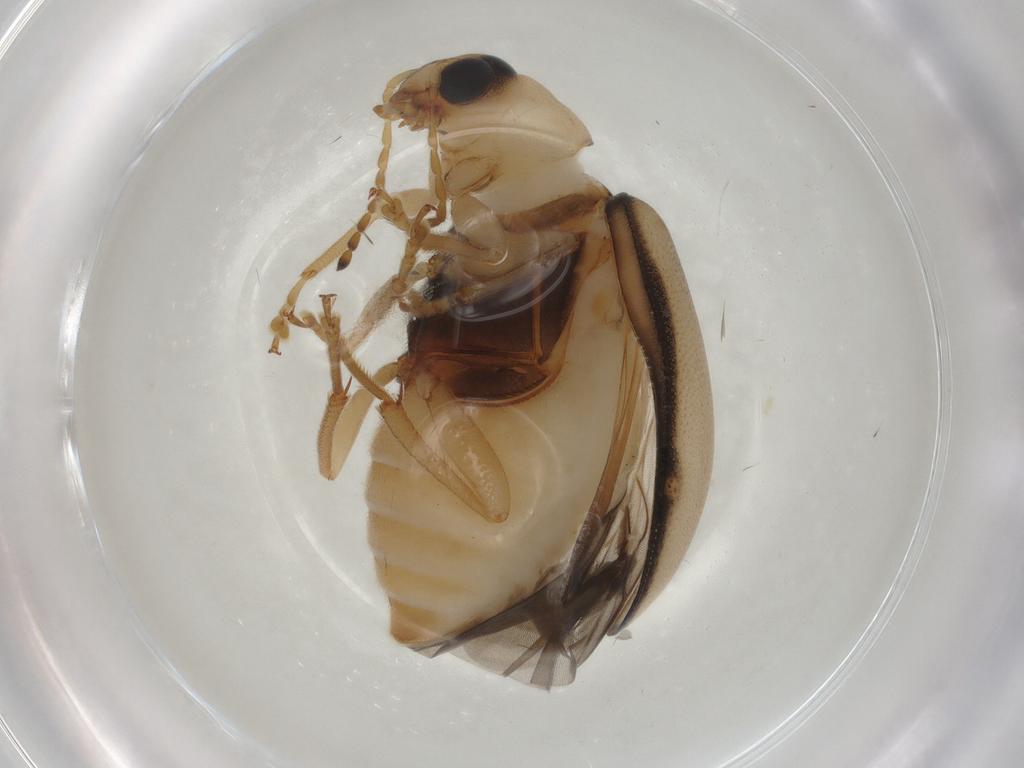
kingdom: Animalia
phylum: Arthropoda
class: Insecta
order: Coleoptera
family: Chrysomelidae
